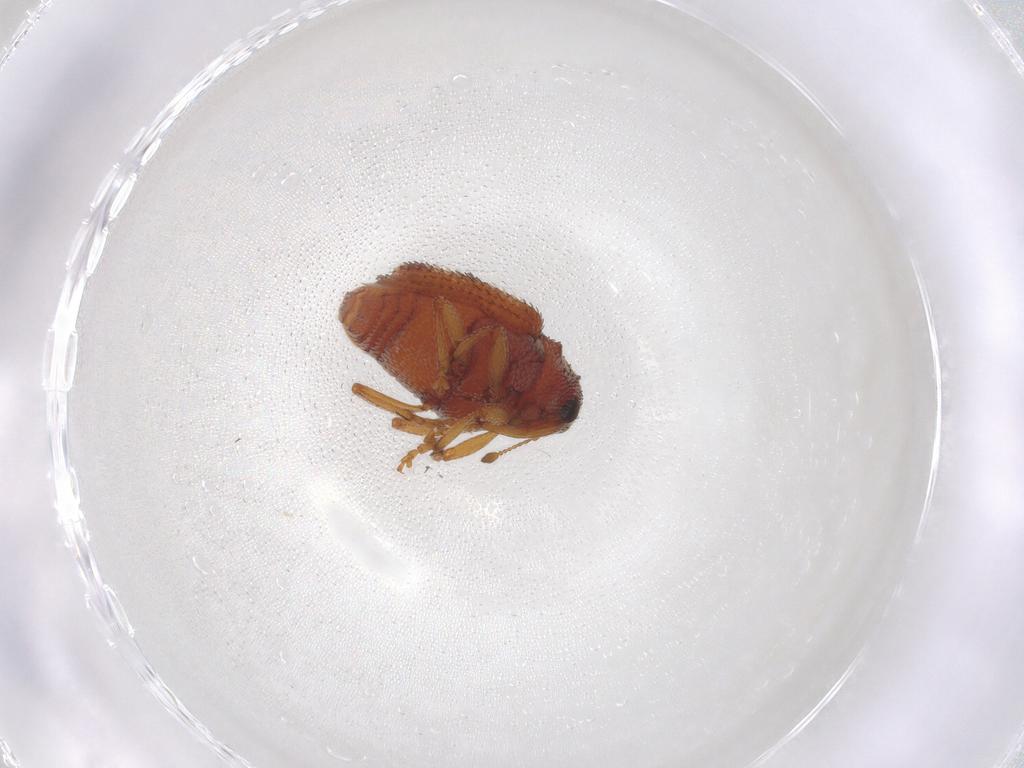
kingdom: Animalia
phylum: Arthropoda
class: Insecta
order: Coleoptera
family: Curculionidae
